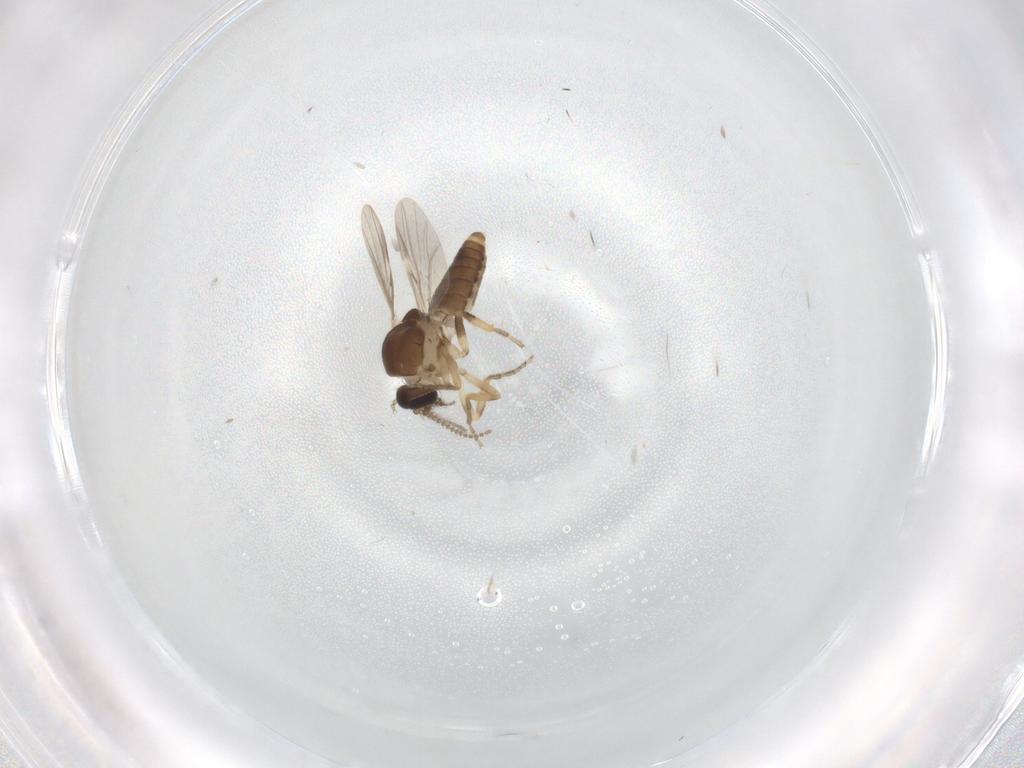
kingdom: Animalia
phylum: Arthropoda
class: Insecta
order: Diptera
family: Ceratopogonidae
